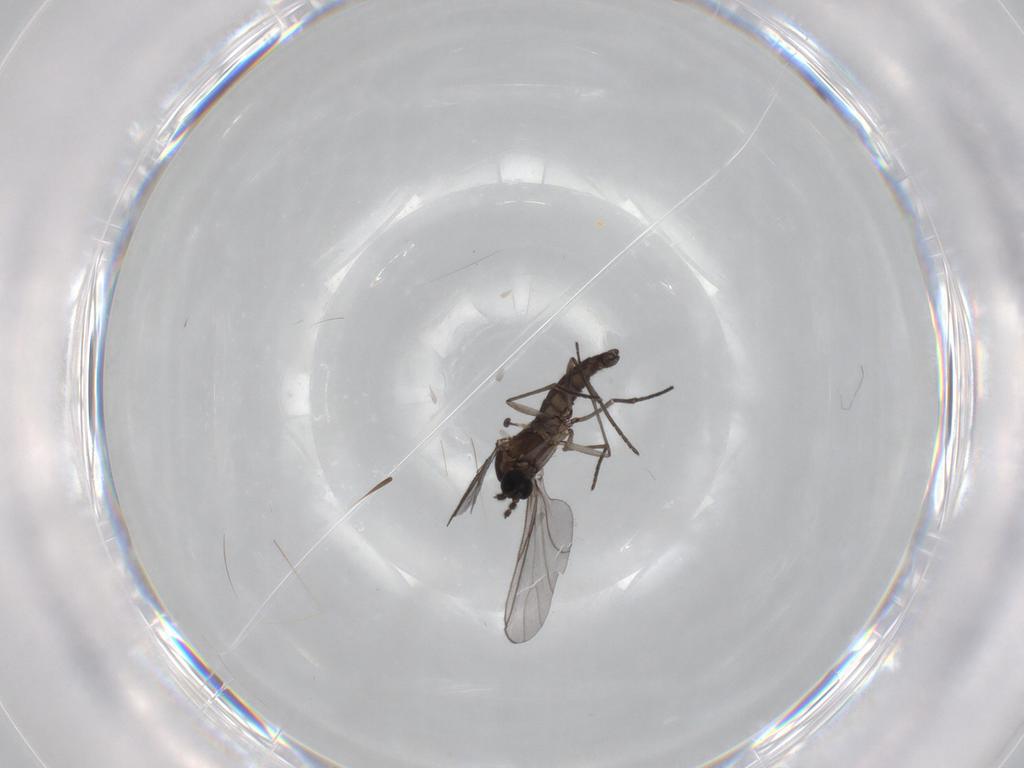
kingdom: Animalia
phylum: Arthropoda
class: Insecta
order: Diptera
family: Sciaridae
